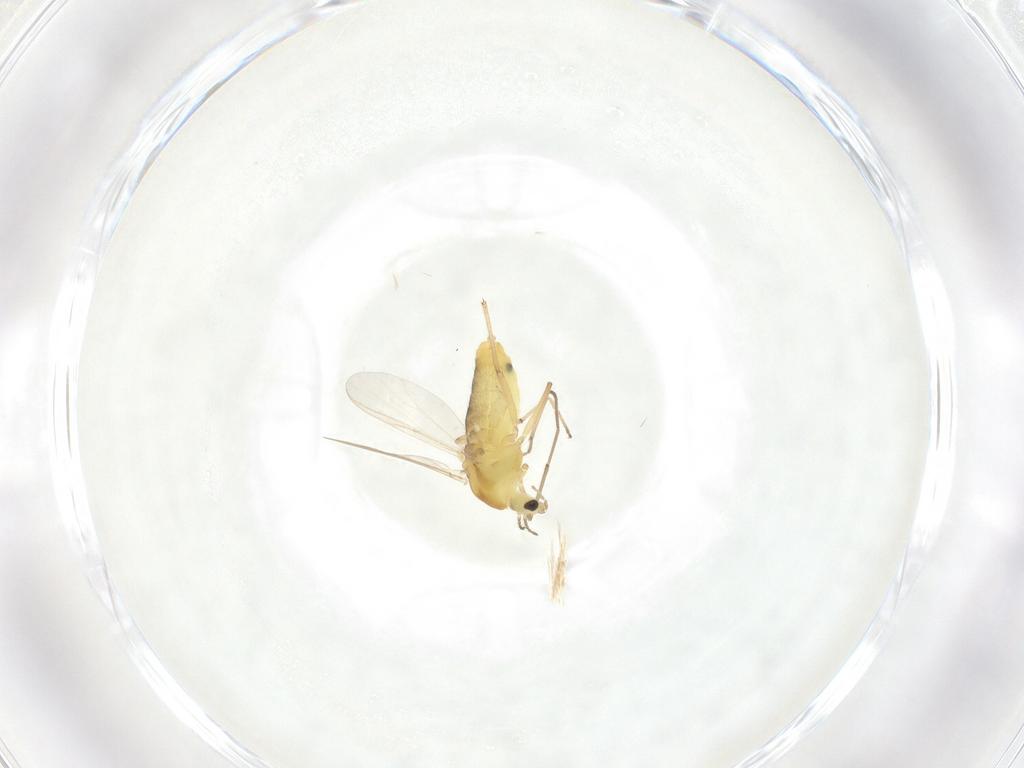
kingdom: Animalia
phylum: Arthropoda
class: Insecta
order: Diptera
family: Chironomidae
